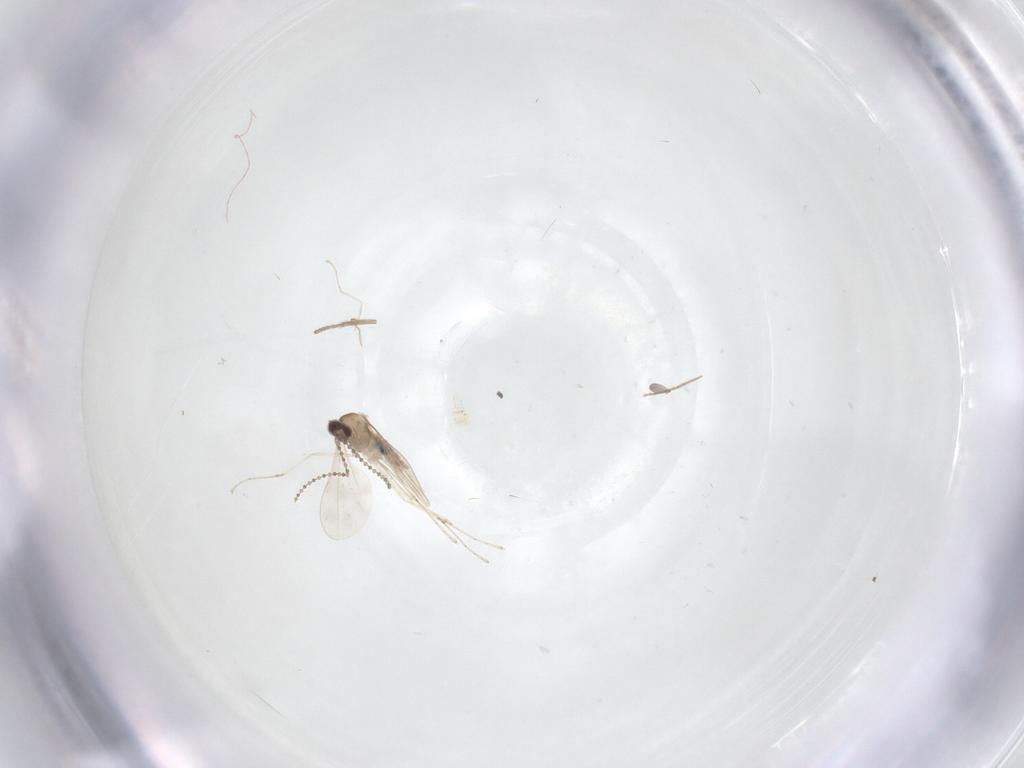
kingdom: Animalia
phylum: Arthropoda
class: Insecta
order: Diptera
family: Cecidomyiidae
